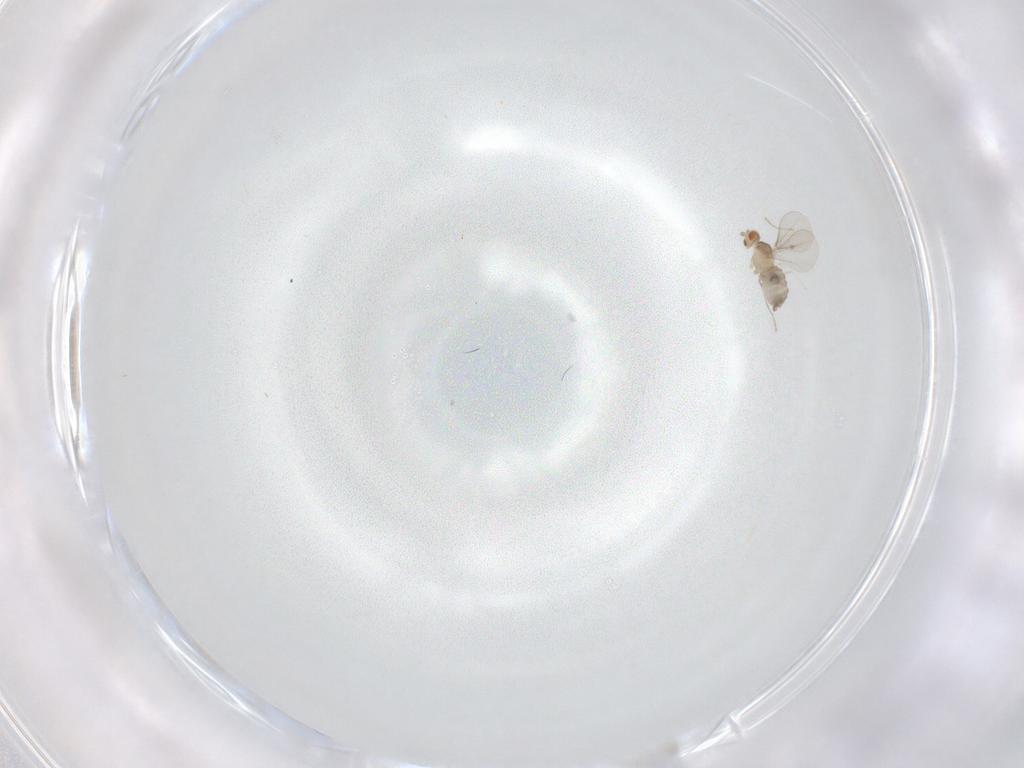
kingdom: Animalia
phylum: Arthropoda
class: Insecta
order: Diptera
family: Cecidomyiidae
